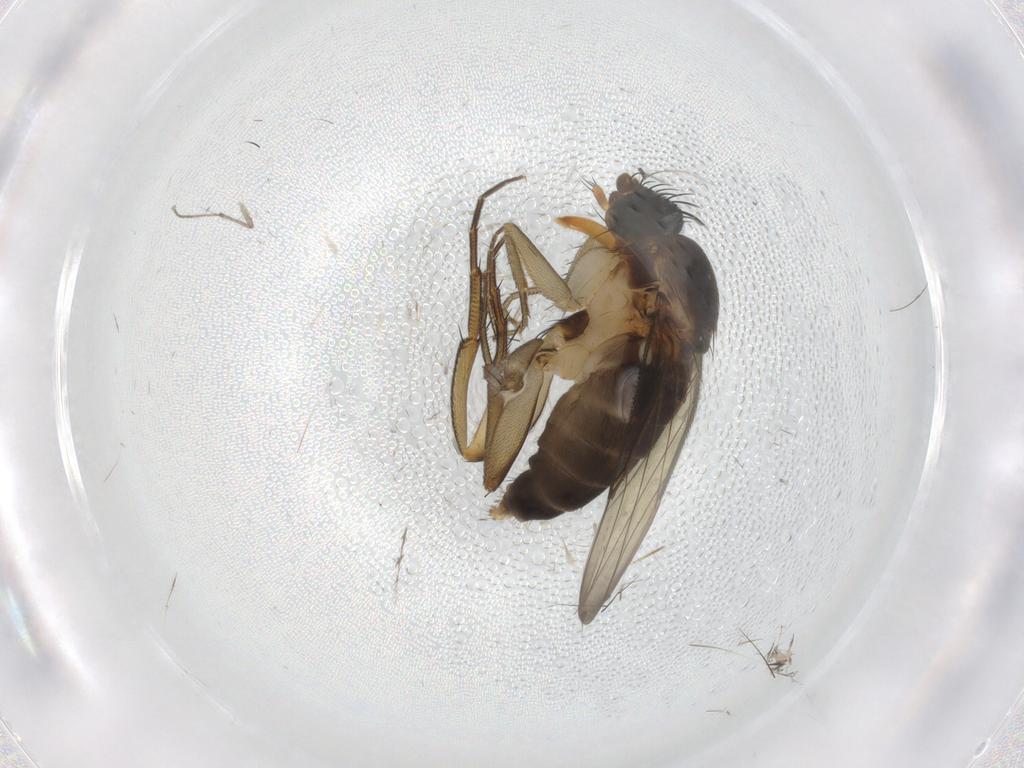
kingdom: Animalia
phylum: Arthropoda
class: Insecta
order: Diptera
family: Phoridae
